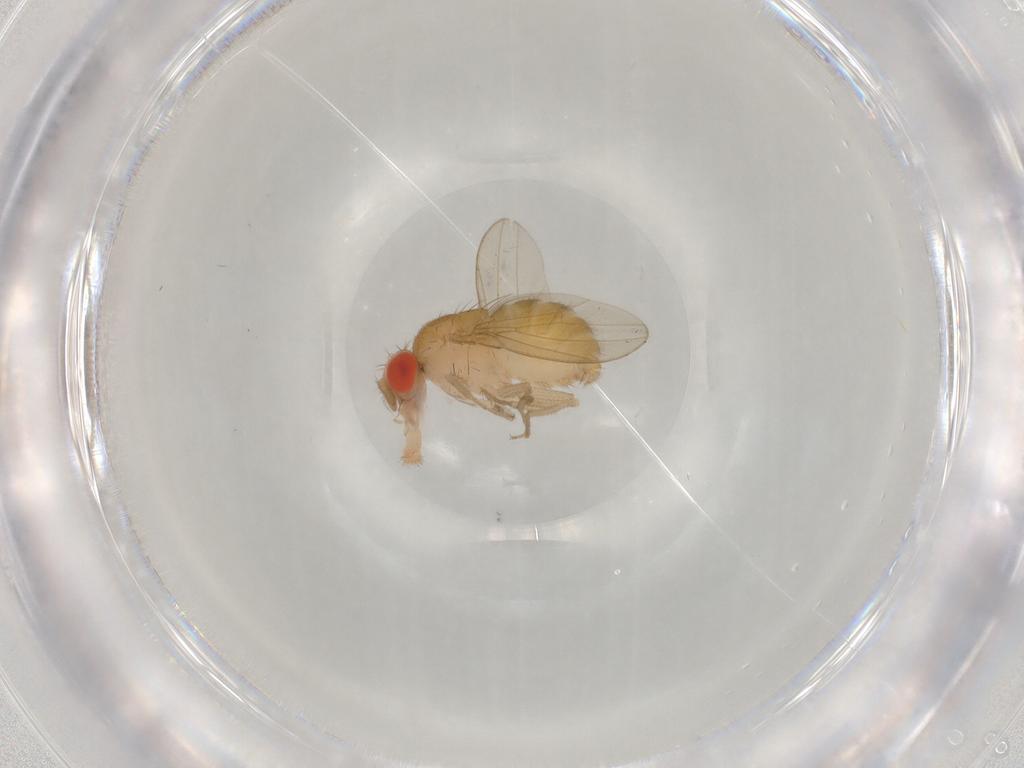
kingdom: Animalia
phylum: Arthropoda
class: Insecta
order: Diptera
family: Drosophilidae
